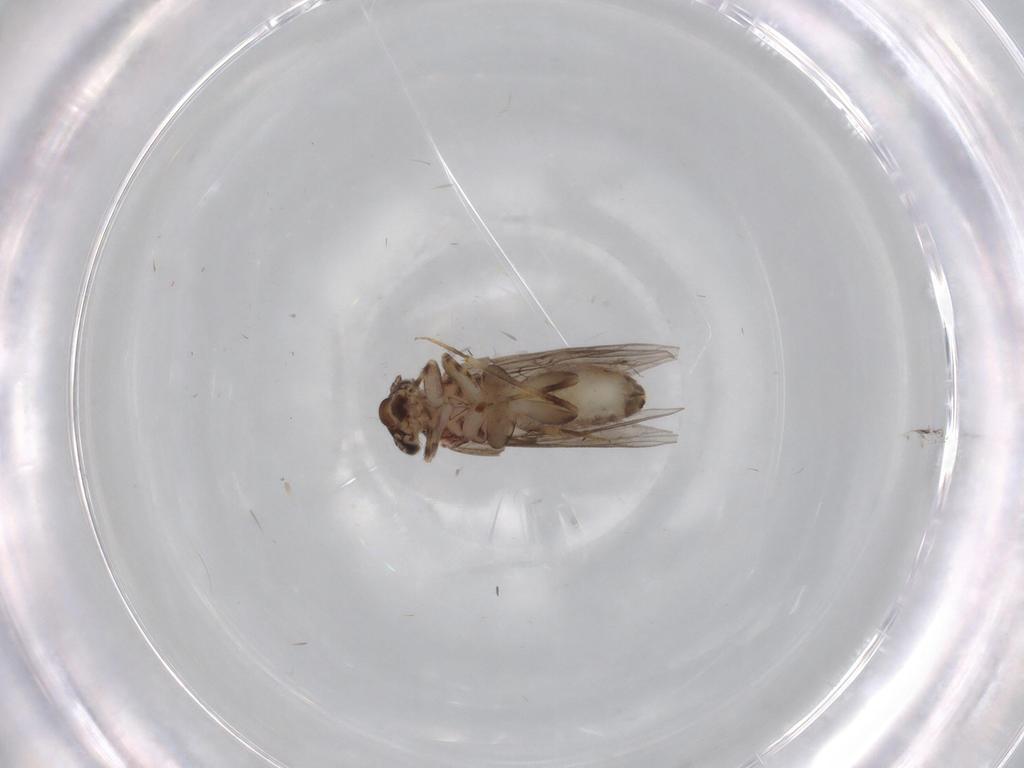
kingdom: Animalia
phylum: Arthropoda
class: Insecta
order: Psocodea
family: Lepidopsocidae
